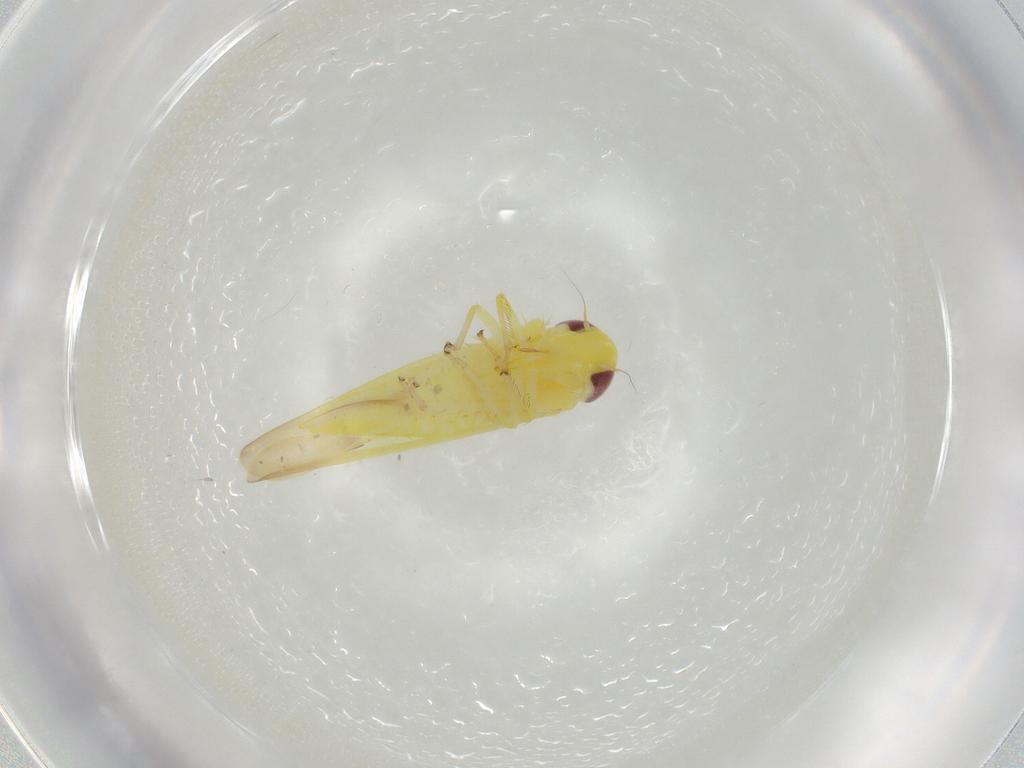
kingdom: Animalia
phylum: Arthropoda
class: Insecta
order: Hemiptera
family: Cicadellidae
